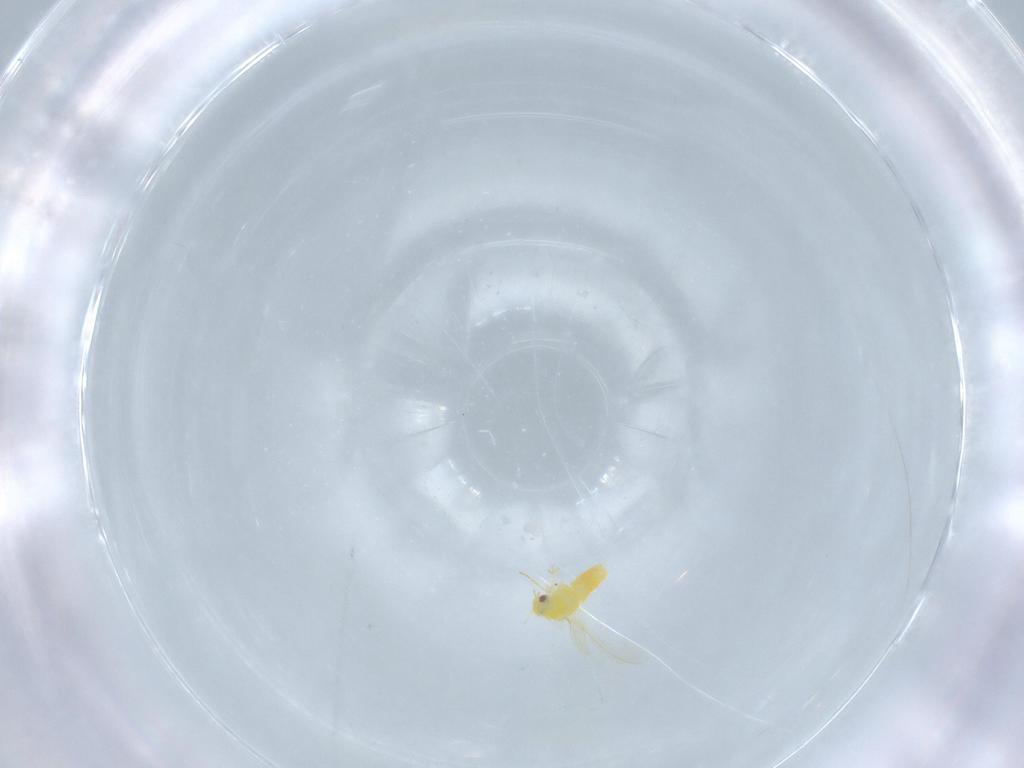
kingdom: Animalia
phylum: Arthropoda
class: Insecta
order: Hemiptera
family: Aleyrodidae
